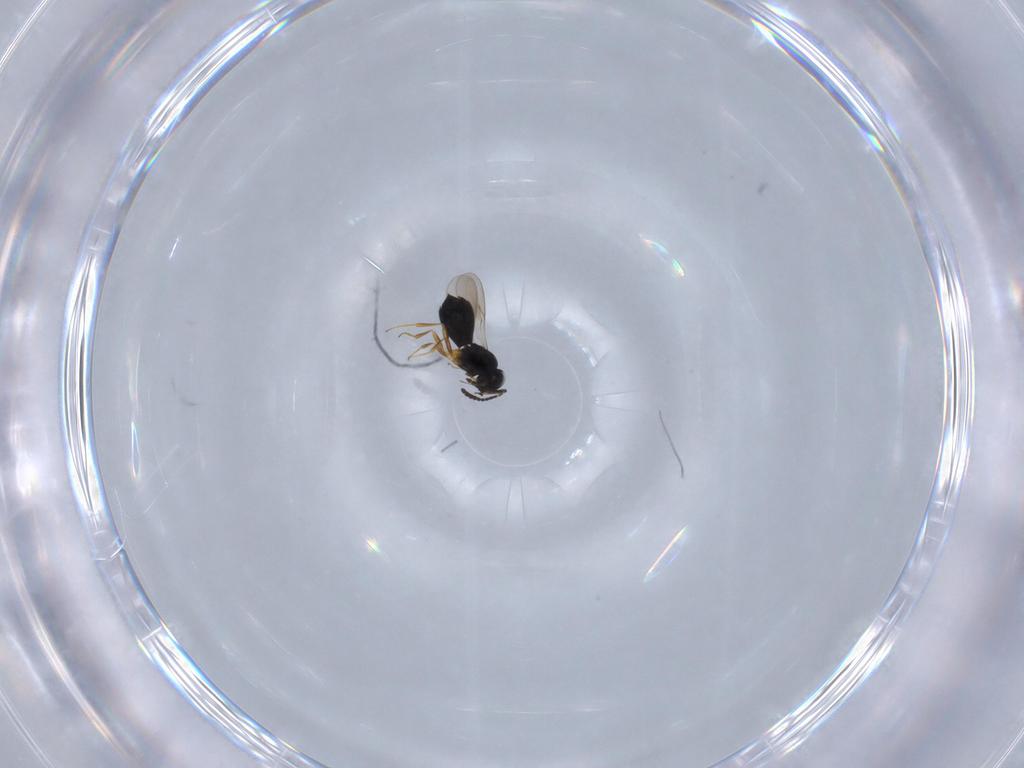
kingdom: Animalia
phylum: Arthropoda
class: Insecta
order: Hymenoptera
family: Scelionidae
